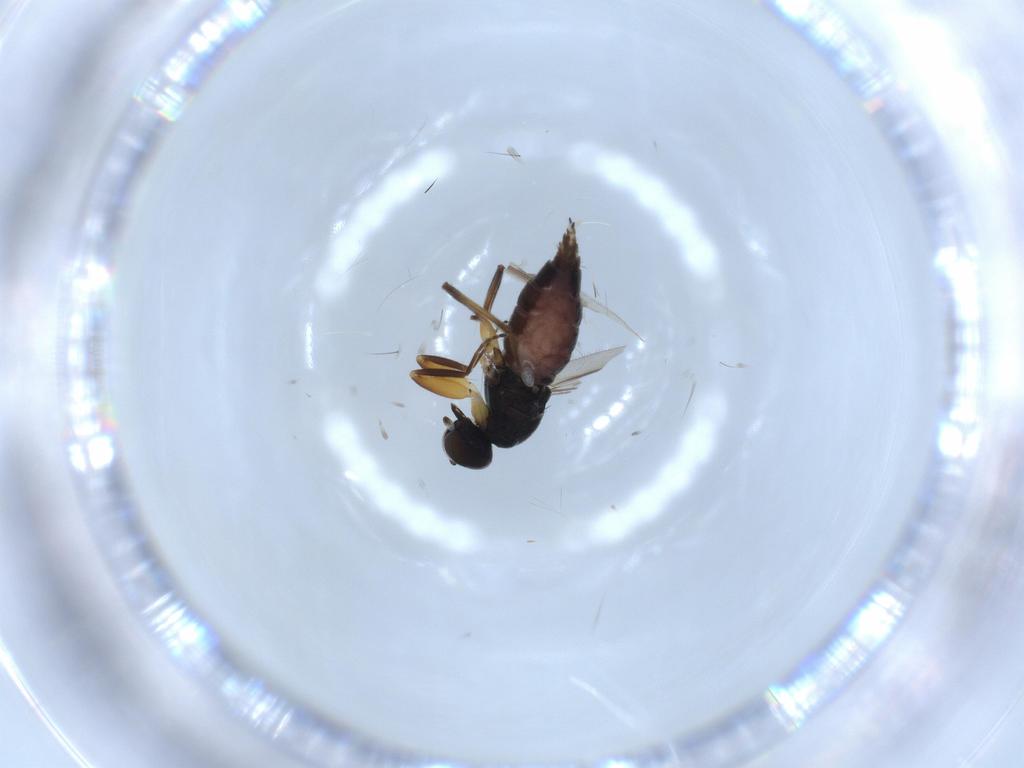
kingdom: Animalia
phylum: Arthropoda
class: Insecta
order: Diptera
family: Hybotidae
